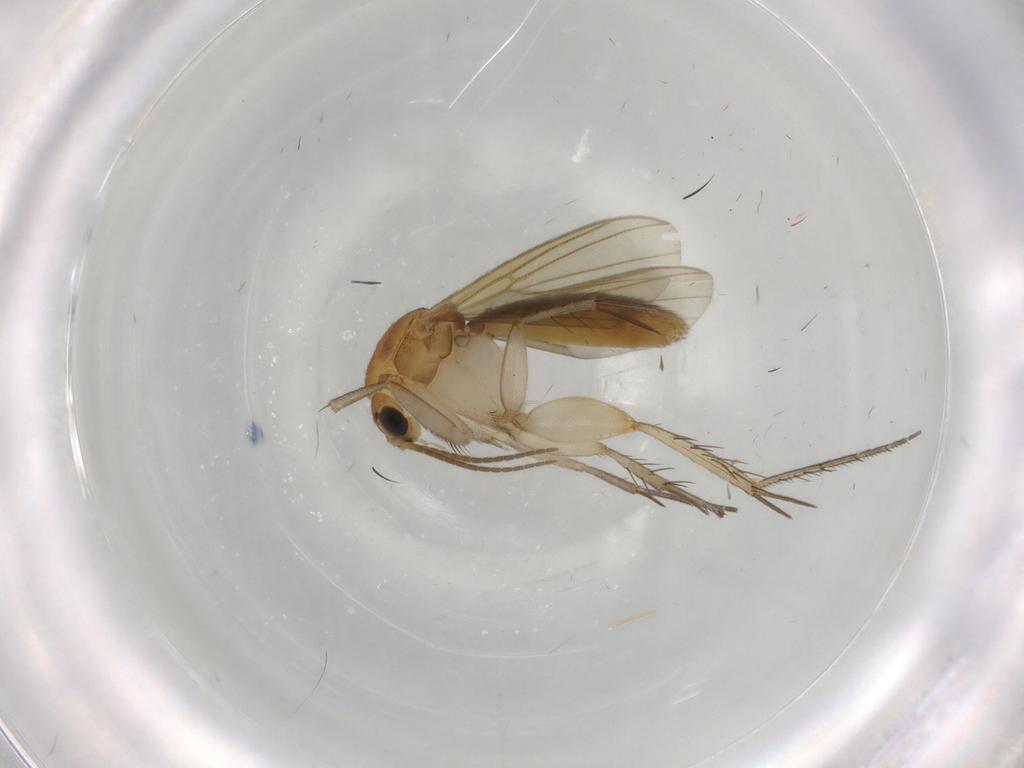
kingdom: Animalia
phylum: Arthropoda
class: Insecta
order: Diptera
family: Mycetophilidae
